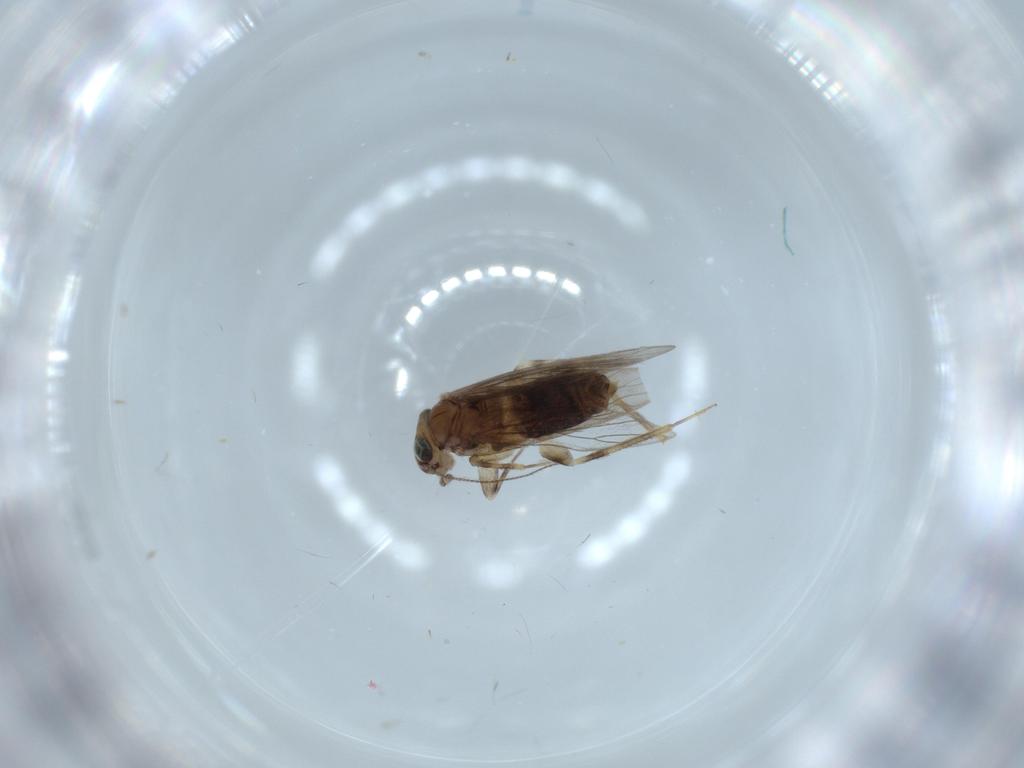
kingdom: Animalia
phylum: Arthropoda
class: Insecta
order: Psocodea
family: Lepidopsocidae
